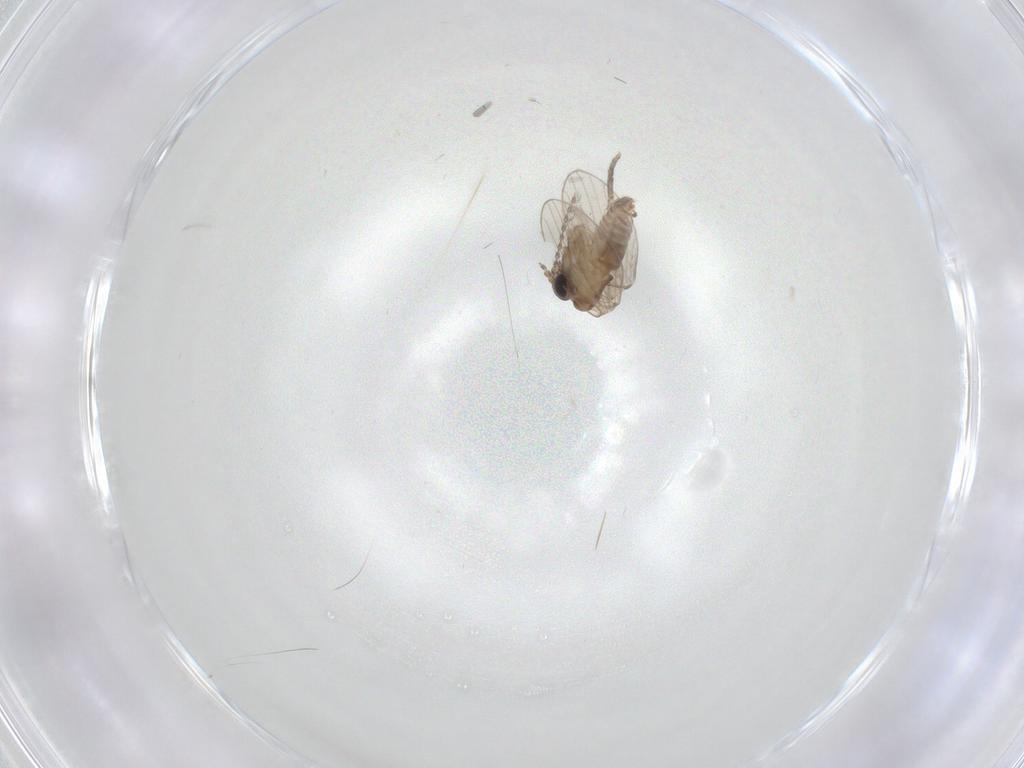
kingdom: Animalia
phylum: Arthropoda
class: Insecta
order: Diptera
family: Psychodidae
